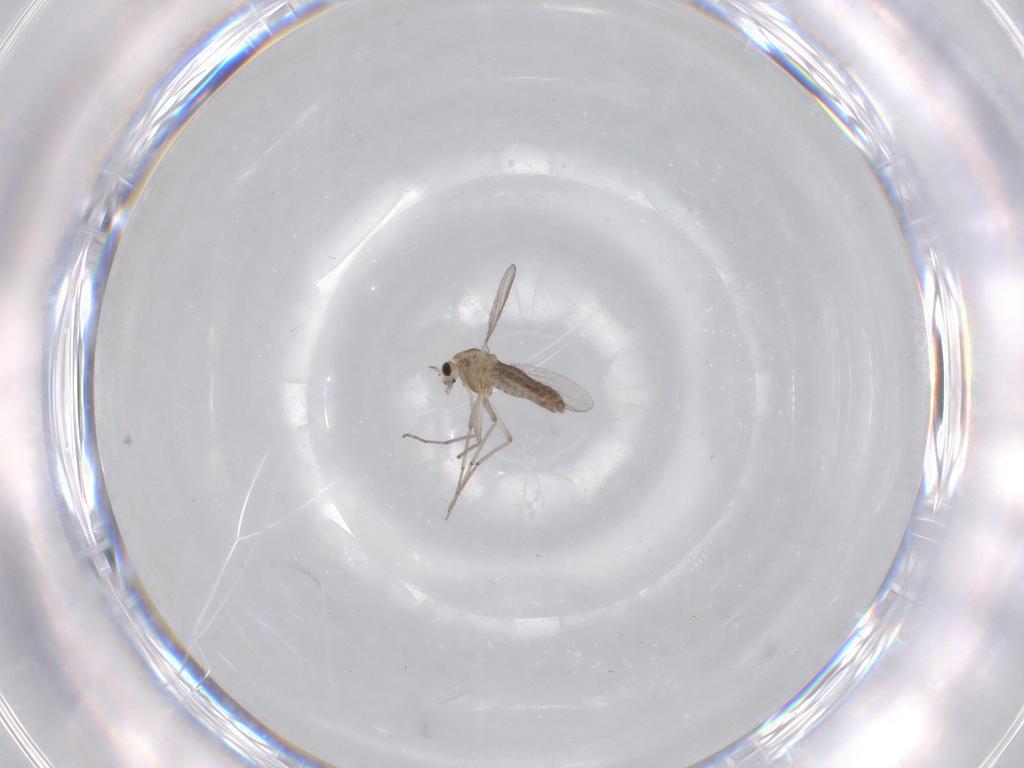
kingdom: Animalia
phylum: Arthropoda
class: Insecta
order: Diptera
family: Chironomidae
